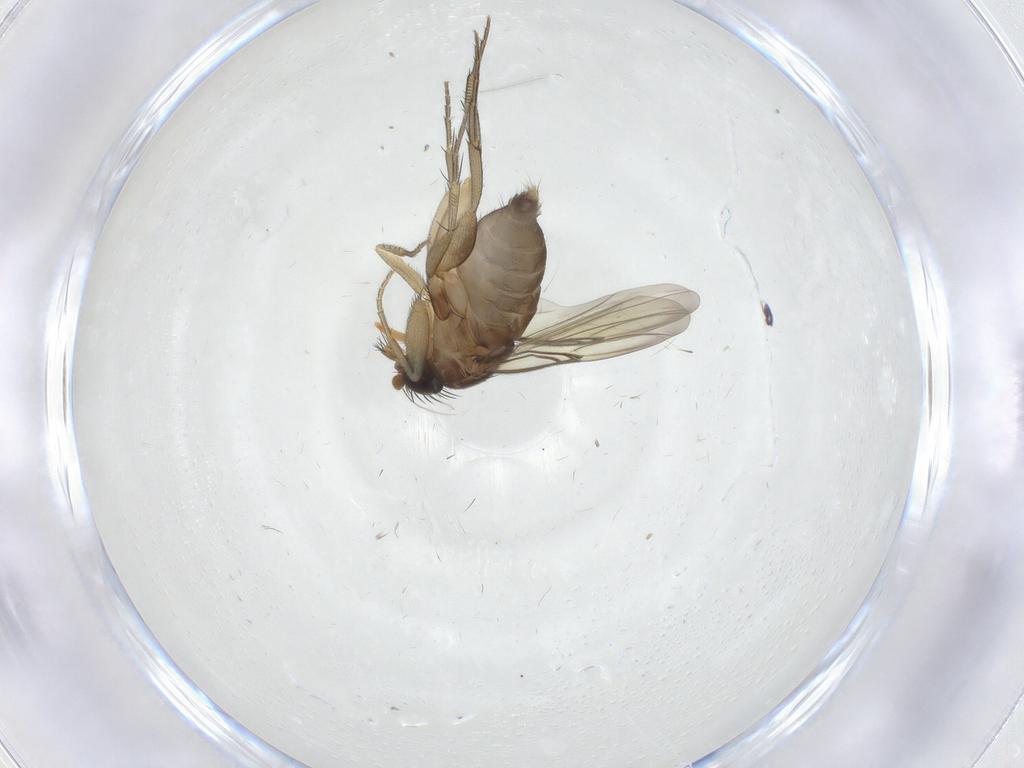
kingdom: Animalia
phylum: Arthropoda
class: Insecta
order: Diptera
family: Phoridae
